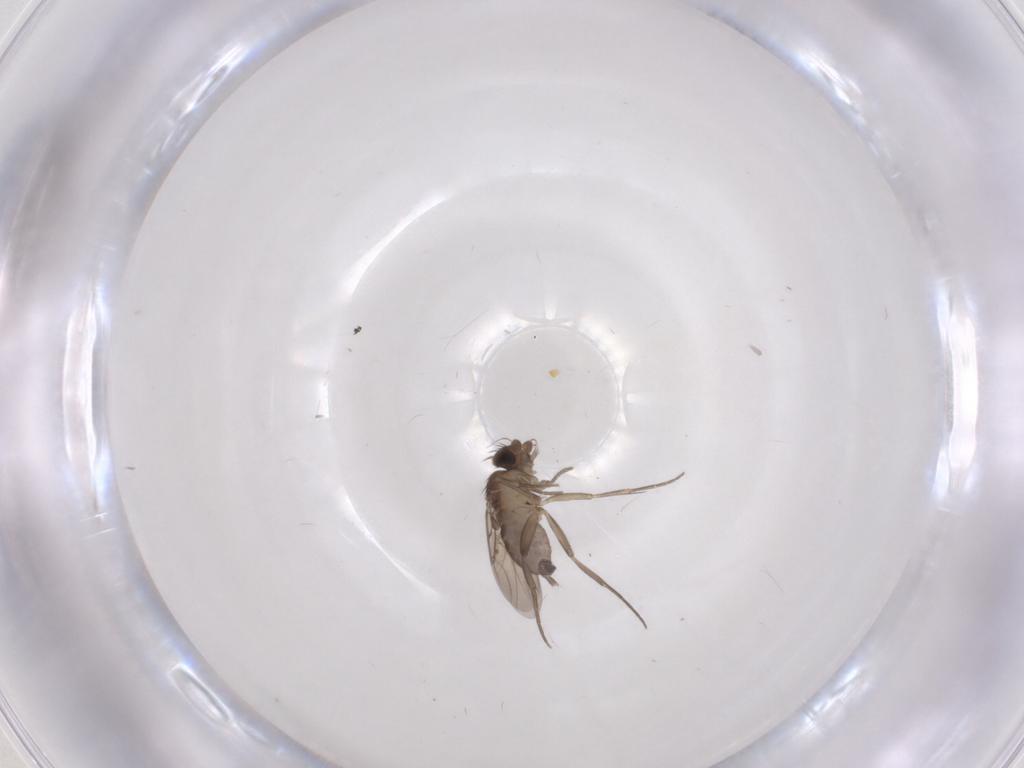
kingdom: Animalia
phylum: Arthropoda
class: Insecta
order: Diptera
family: Phoridae
